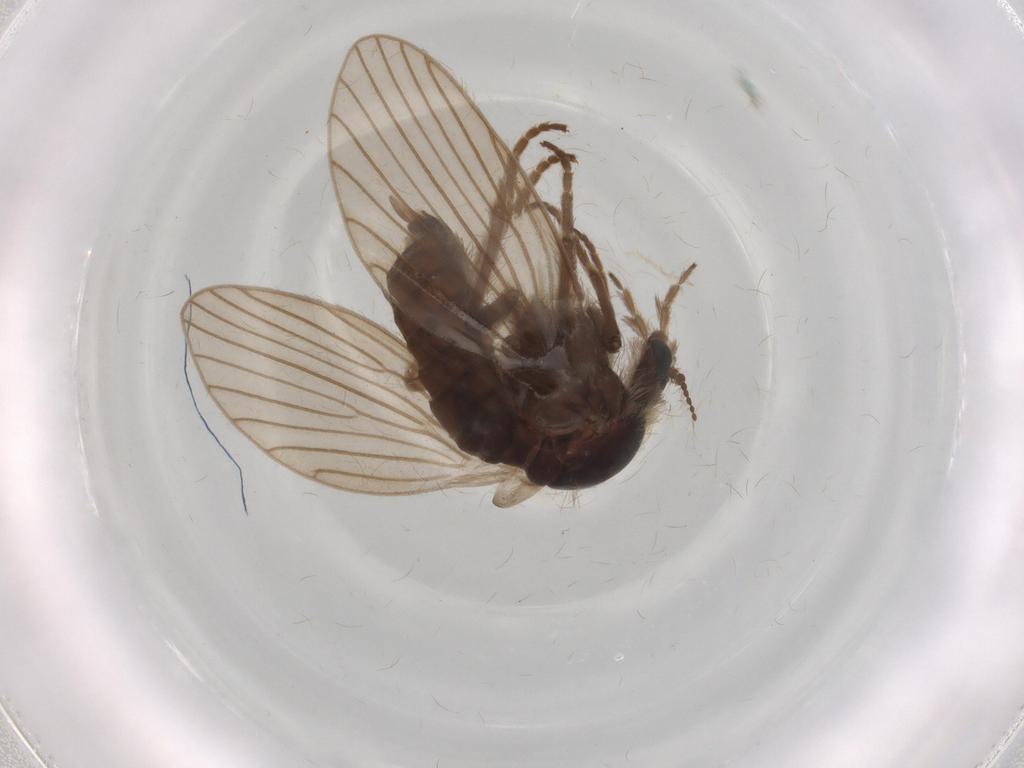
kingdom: Animalia
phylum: Arthropoda
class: Insecta
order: Diptera
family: Psychodidae
